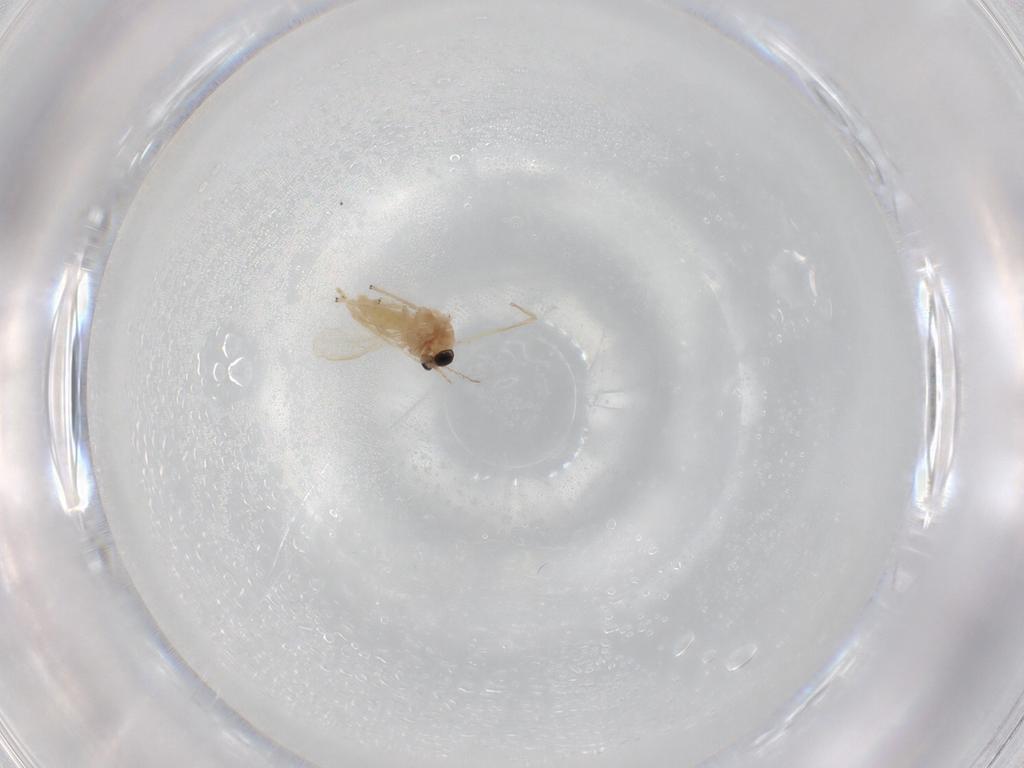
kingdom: Animalia
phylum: Arthropoda
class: Insecta
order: Diptera
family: Chironomidae
